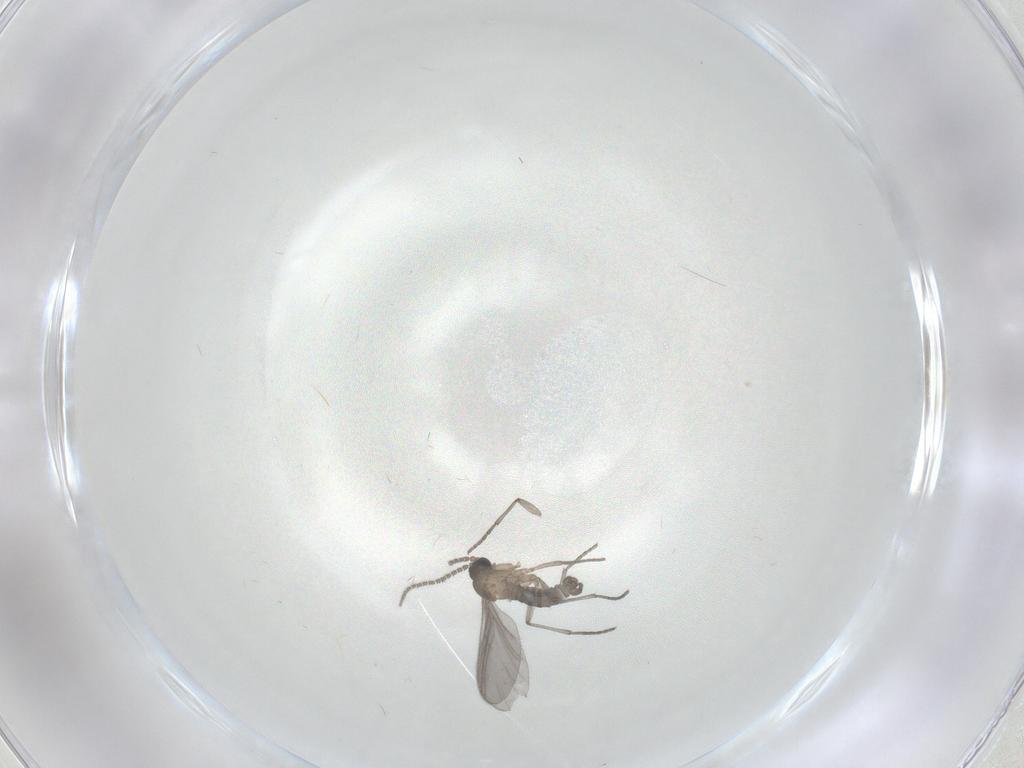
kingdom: Animalia
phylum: Arthropoda
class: Insecta
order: Diptera
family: Sciaridae
